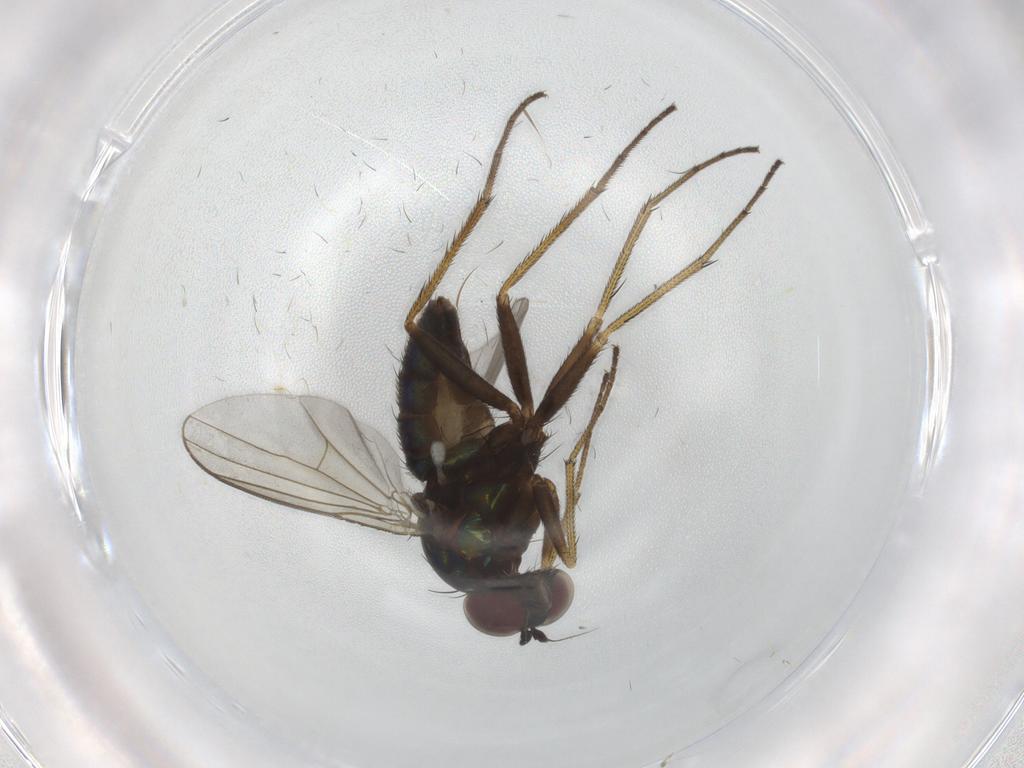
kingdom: Animalia
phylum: Arthropoda
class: Insecta
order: Diptera
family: Dolichopodidae
